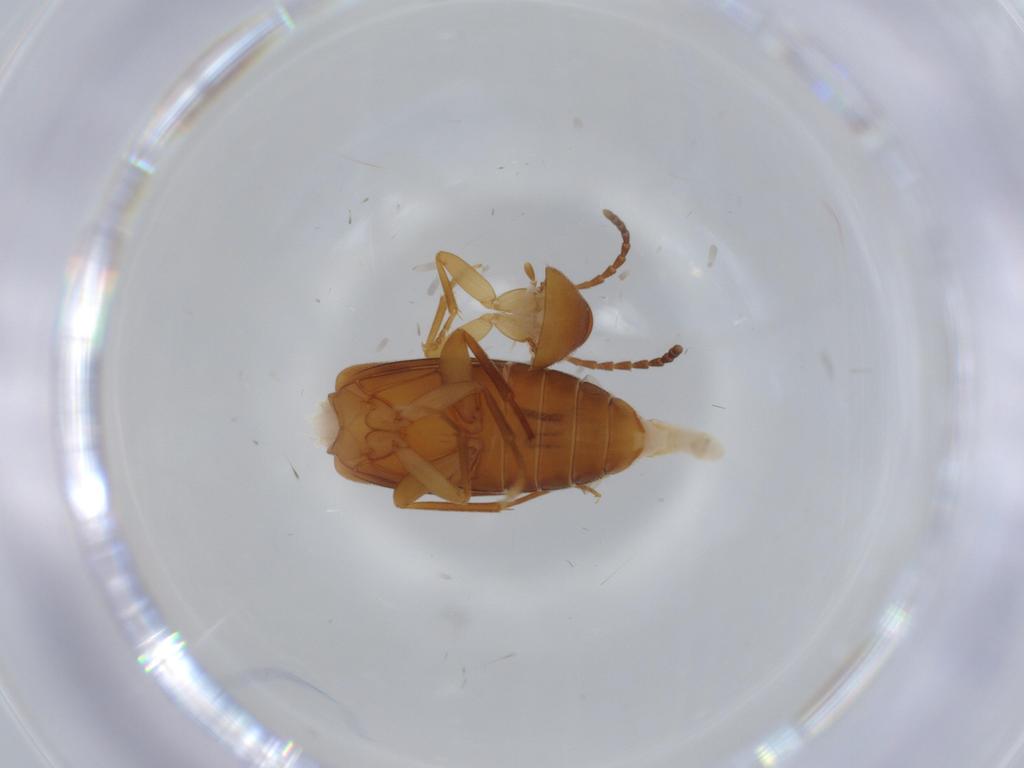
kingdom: Animalia
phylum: Arthropoda
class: Insecta
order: Coleoptera
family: Scraptiidae
